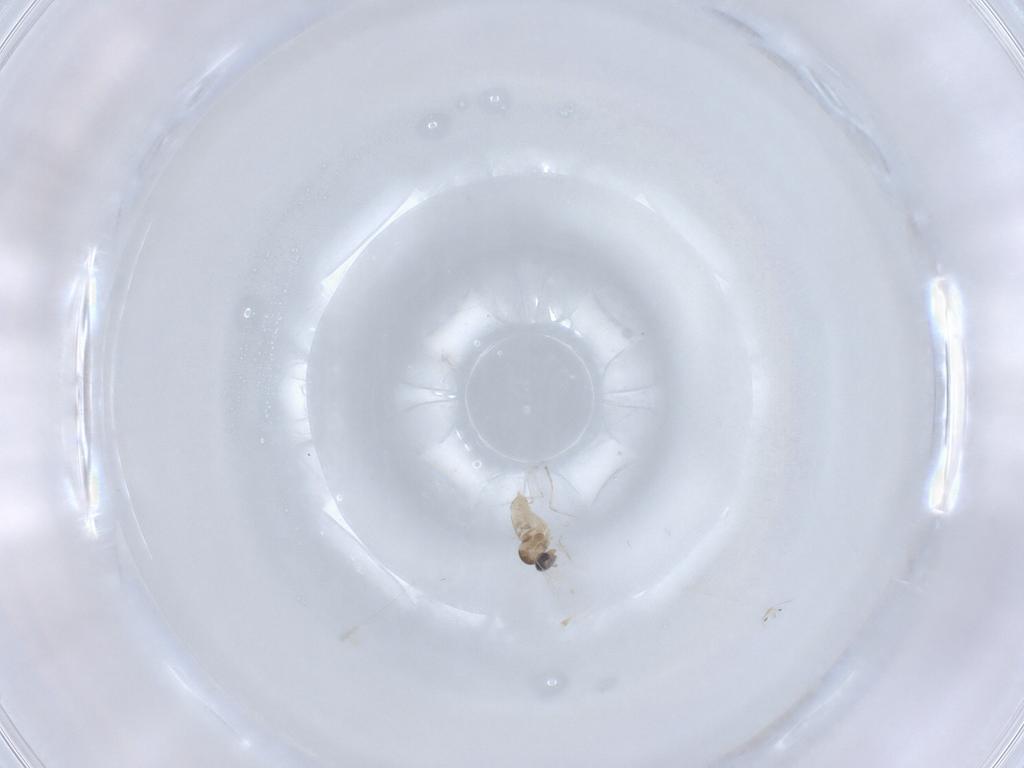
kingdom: Animalia
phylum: Arthropoda
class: Insecta
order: Diptera
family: Cecidomyiidae
